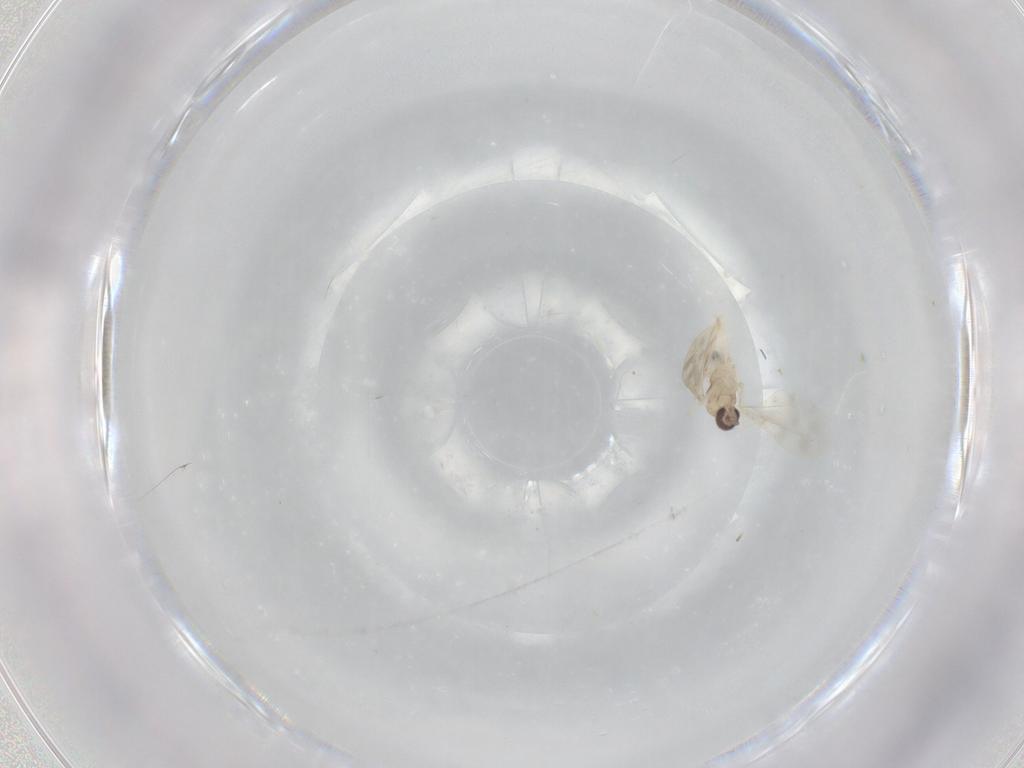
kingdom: Animalia
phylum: Arthropoda
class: Insecta
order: Diptera
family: Cecidomyiidae
